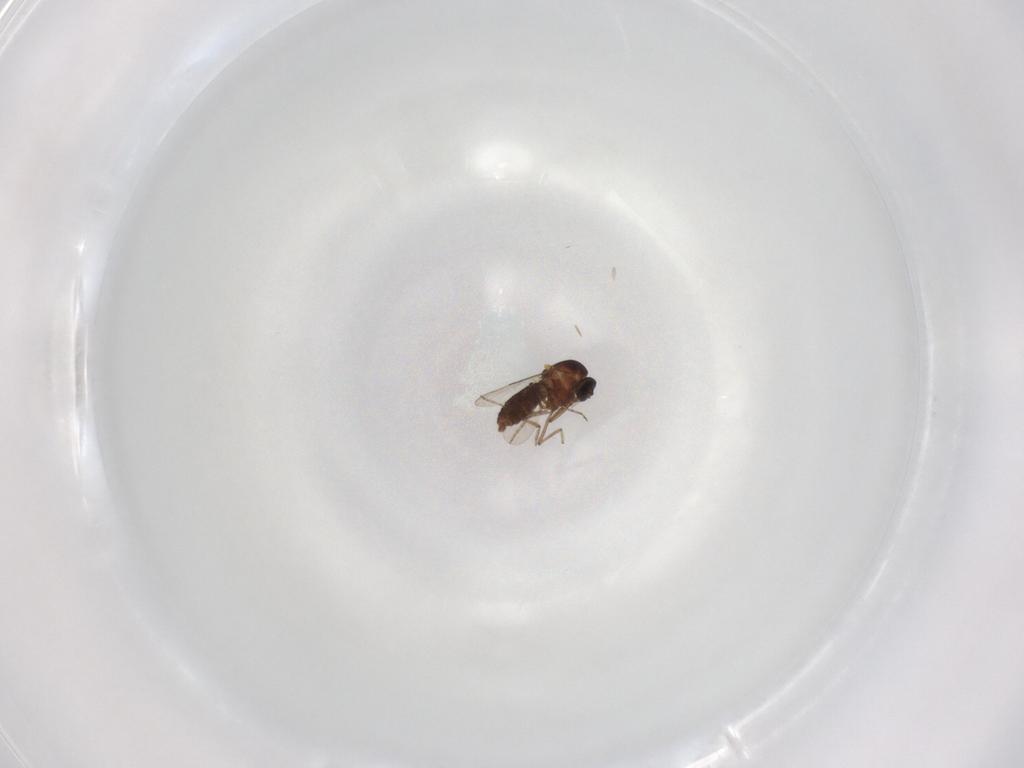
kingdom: Animalia
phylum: Arthropoda
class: Insecta
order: Diptera
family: Ceratopogonidae
